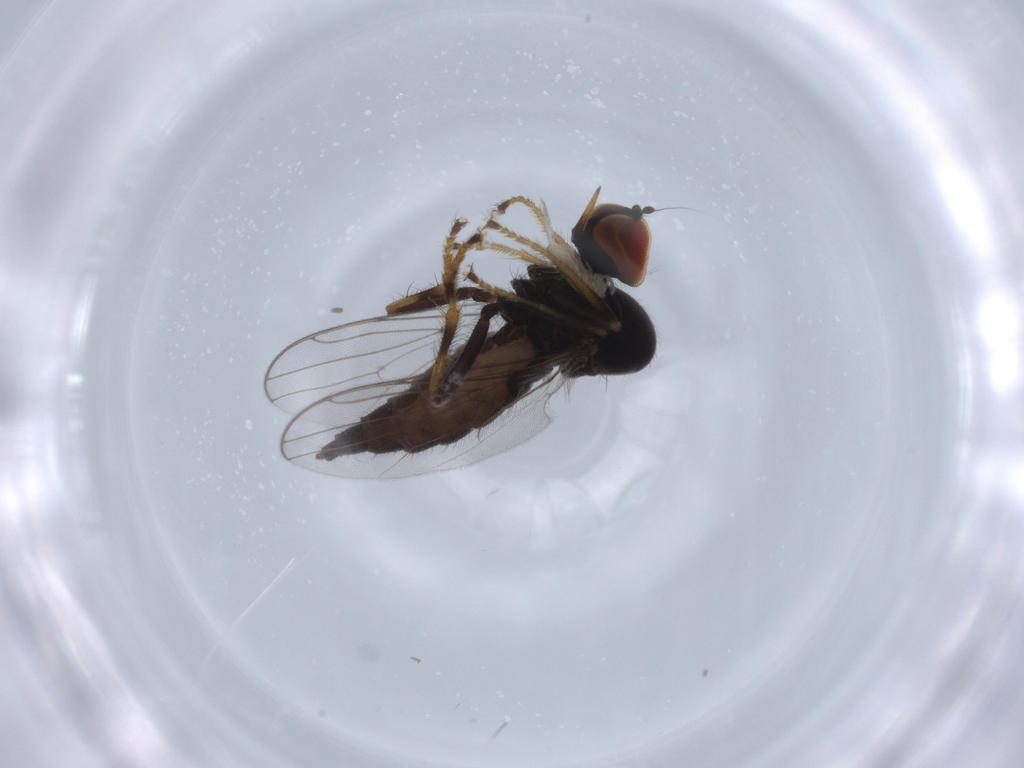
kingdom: Animalia
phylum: Arthropoda
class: Insecta
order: Diptera
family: Hybotidae
